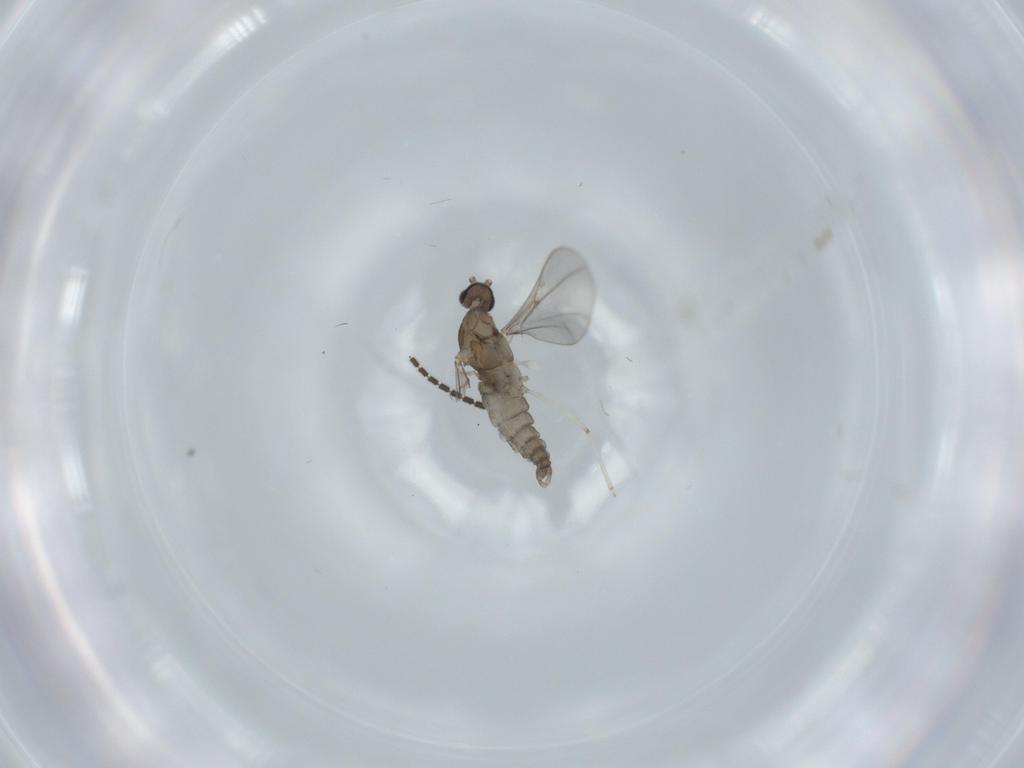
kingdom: Animalia
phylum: Arthropoda
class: Insecta
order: Diptera
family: Cecidomyiidae
